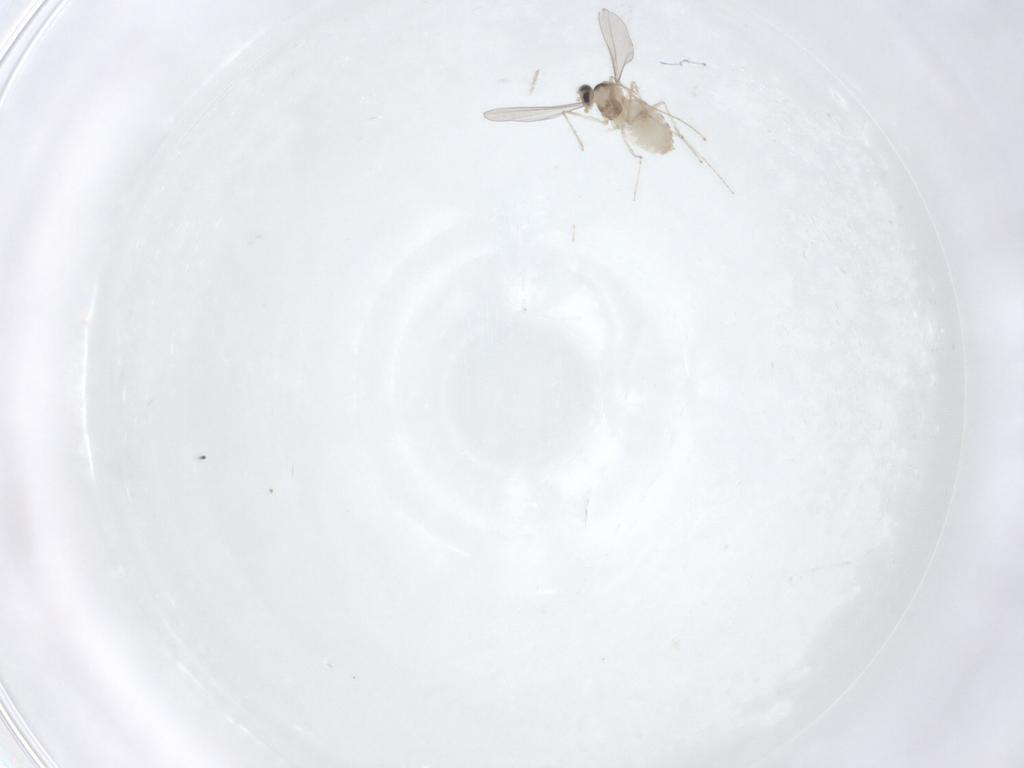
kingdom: Animalia
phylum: Arthropoda
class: Insecta
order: Diptera
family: Cecidomyiidae
